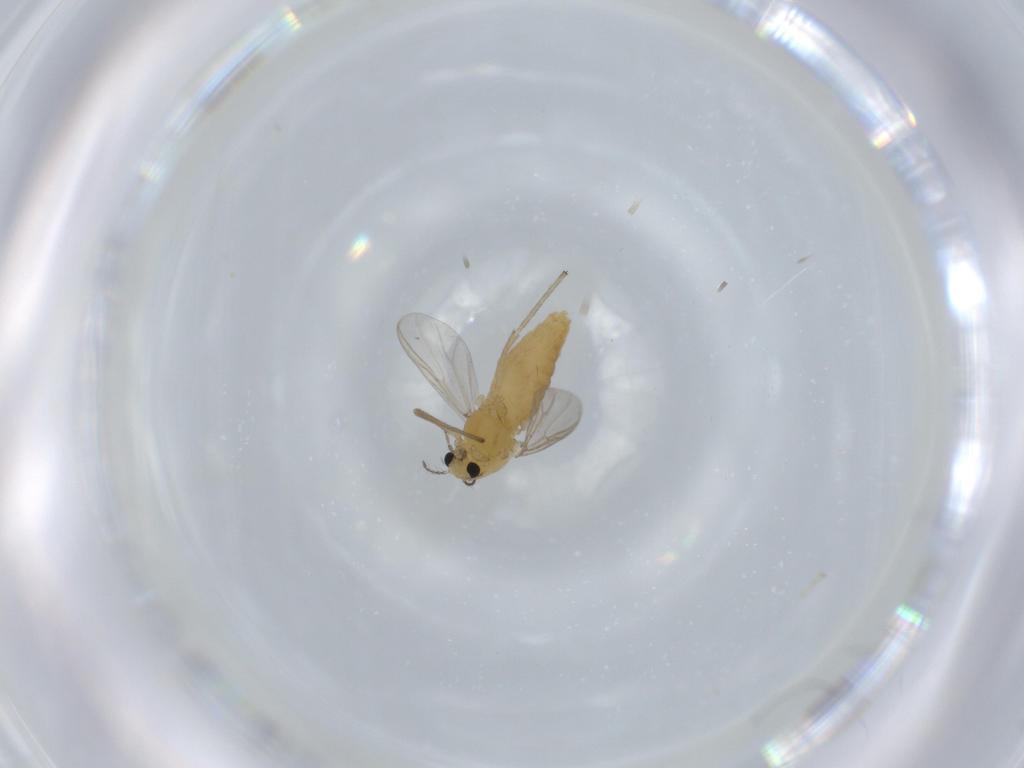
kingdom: Animalia
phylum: Arthropoda
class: Insecta
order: Diptera
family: Chironomidae
